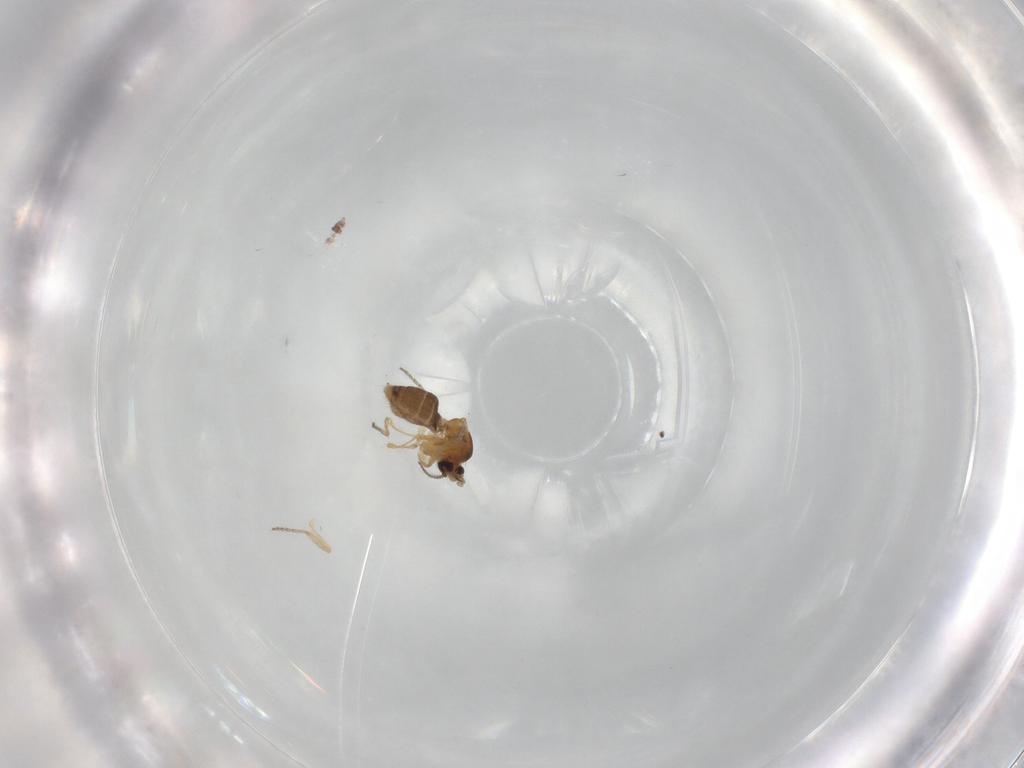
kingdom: Animalia
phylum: Arthropoda
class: Insecta
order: Diptera
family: Ceratopogonidae
